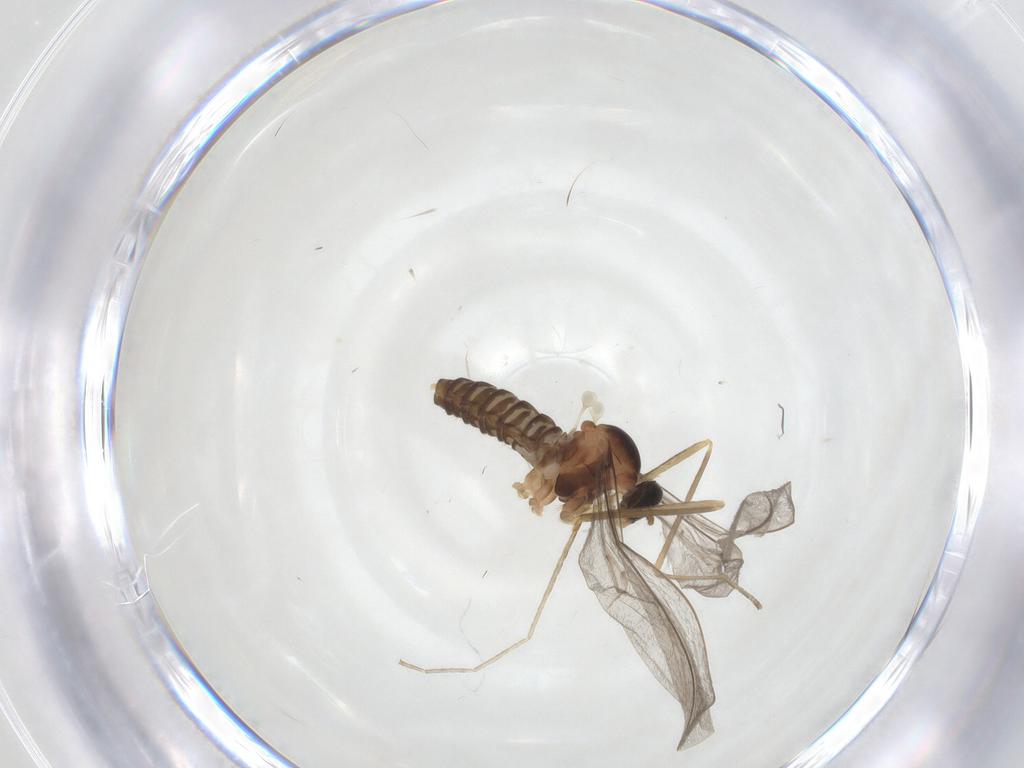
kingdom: Animalia
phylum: Arthropoda
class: Insecta
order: Diptera
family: Cecidomyiidae
